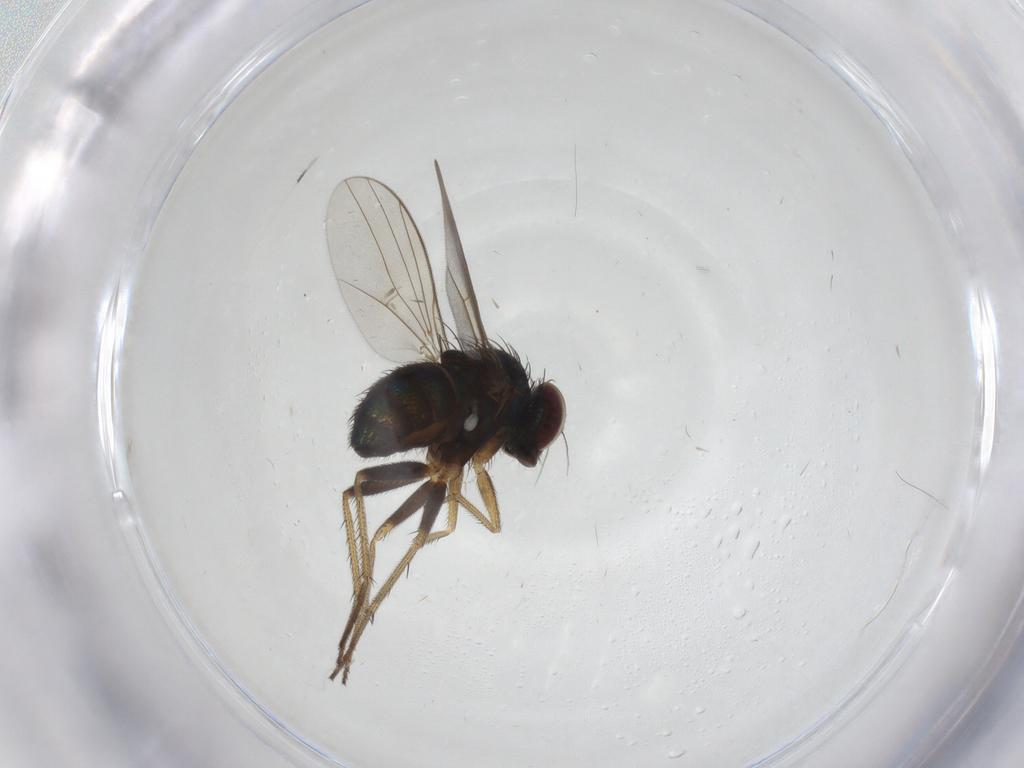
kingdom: Animalia
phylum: Arthropoda
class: Insecta
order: Diptera
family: Dolichopodidae
